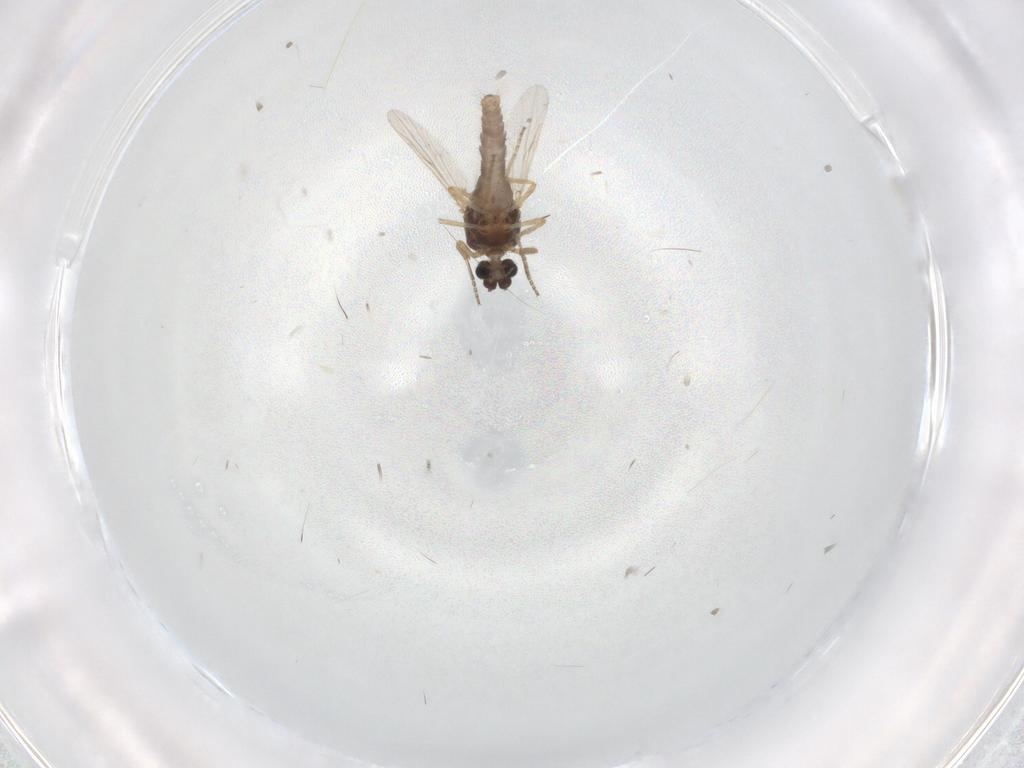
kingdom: Animalia
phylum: Arthropoda
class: Insecta
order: Diptera
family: Ceratopogonidae
